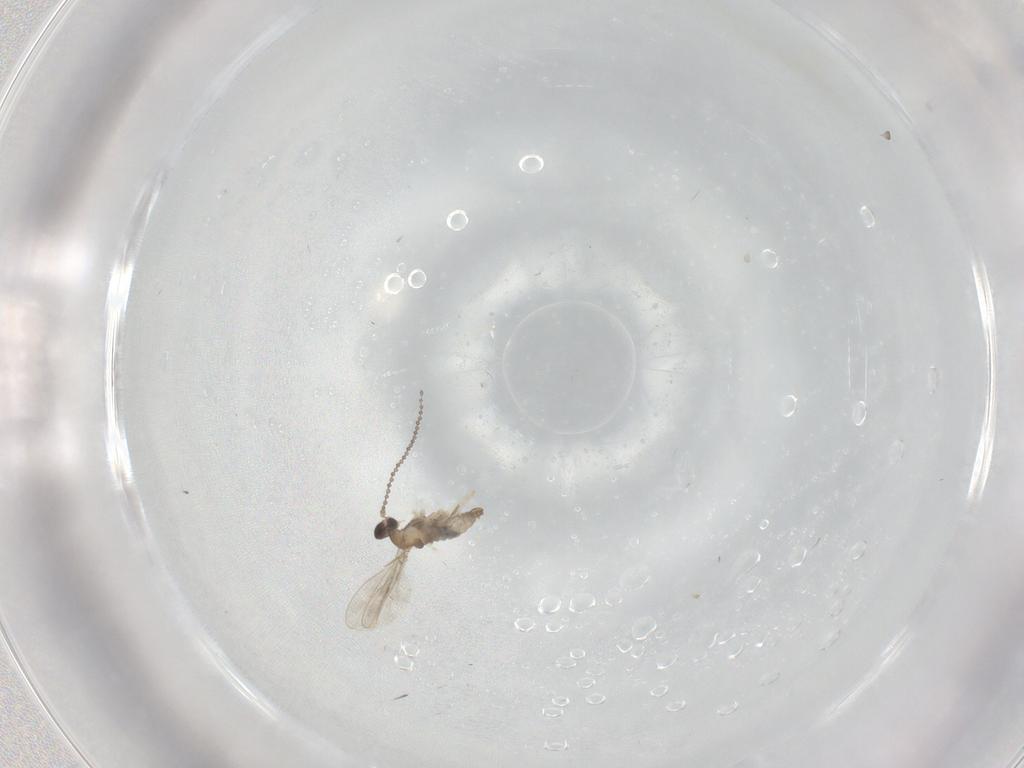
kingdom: Animalia
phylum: Arthropoda
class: Insecta
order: Diptera
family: Cecidomyiidae
